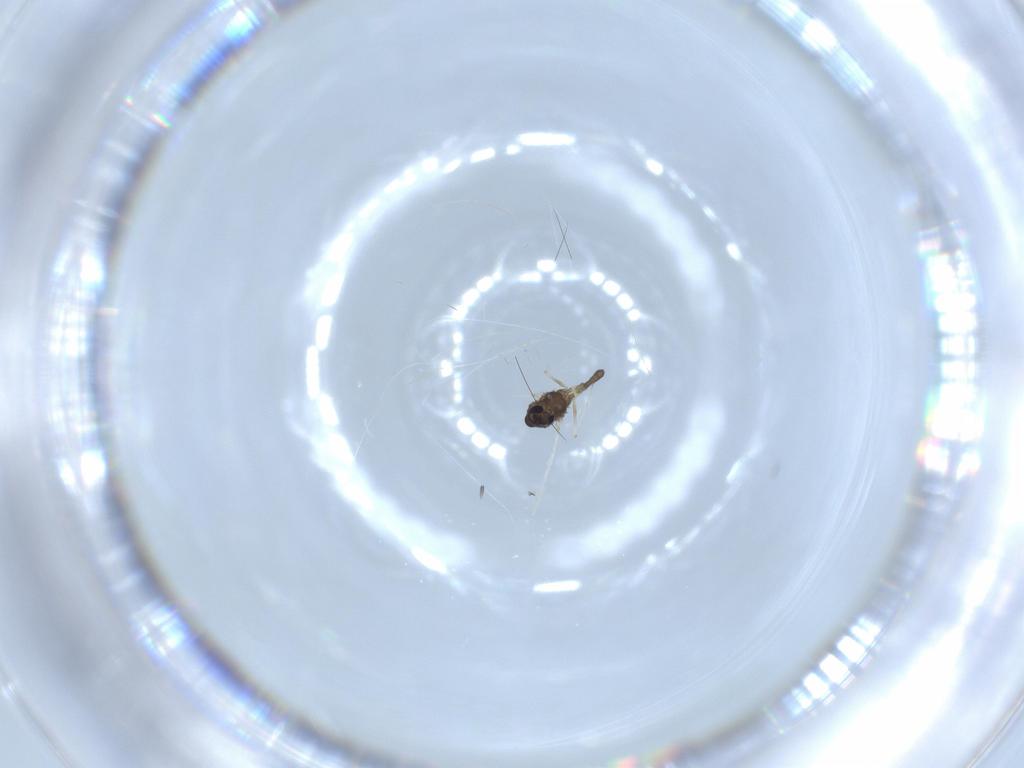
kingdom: Animalia
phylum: Arthropoda
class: Insecta
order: Diptera
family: Chironomidae
